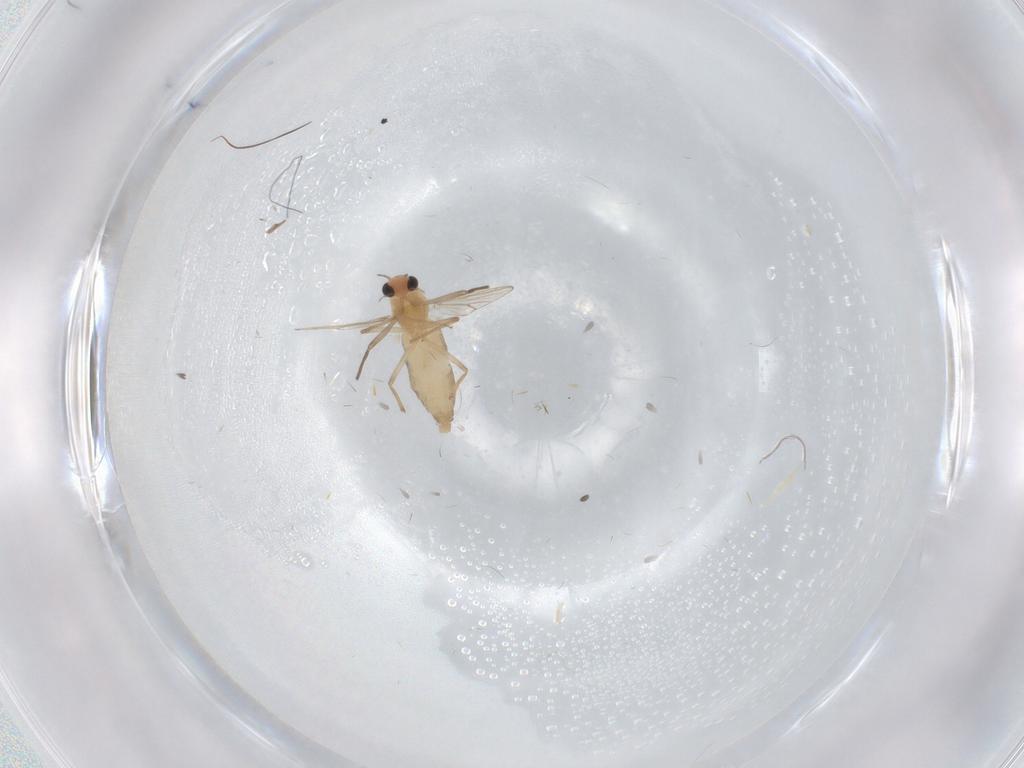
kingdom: Animalia
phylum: Arthropoda
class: Insecta
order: Diptera
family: Chironomidae
